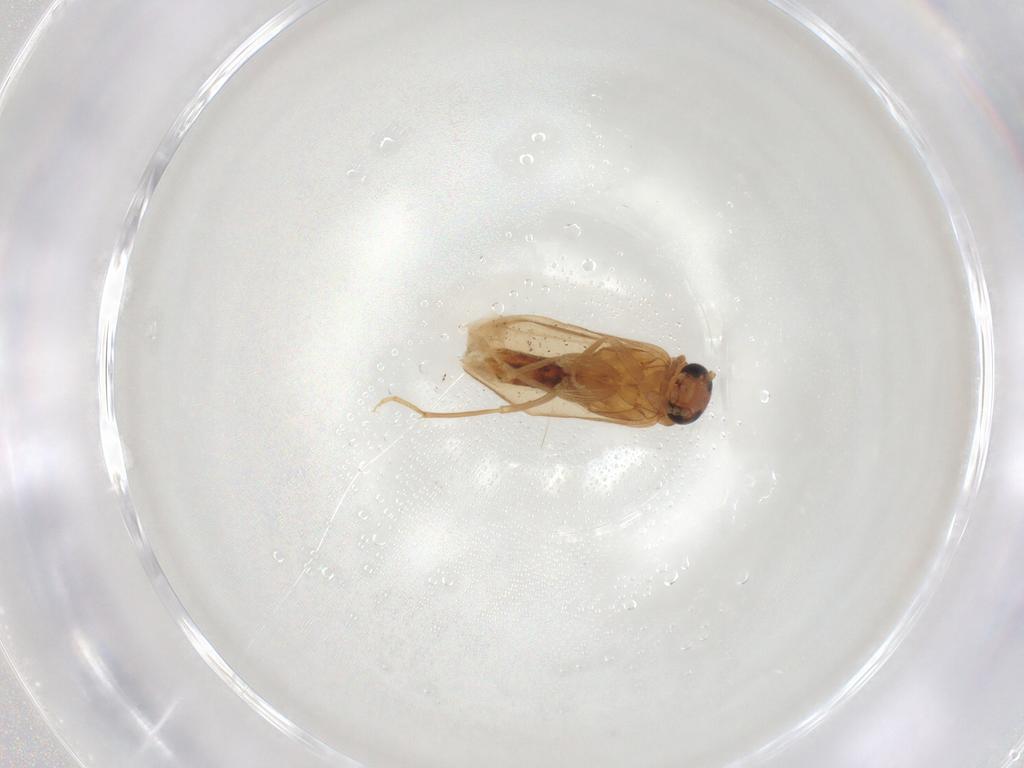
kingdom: Animalia
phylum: Arthropoda
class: Insecta
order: Coleoptera
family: Scraptiidae
